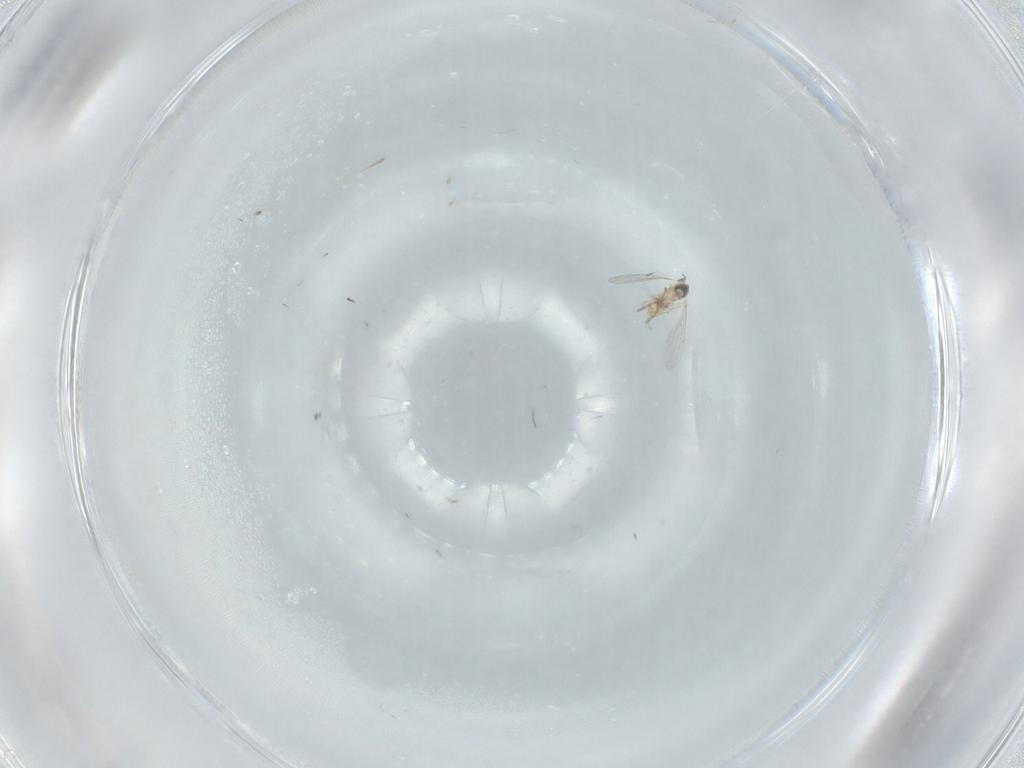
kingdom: Animalia
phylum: Arthropoda
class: Insecta
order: Diptera
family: Cecidomyiidae
